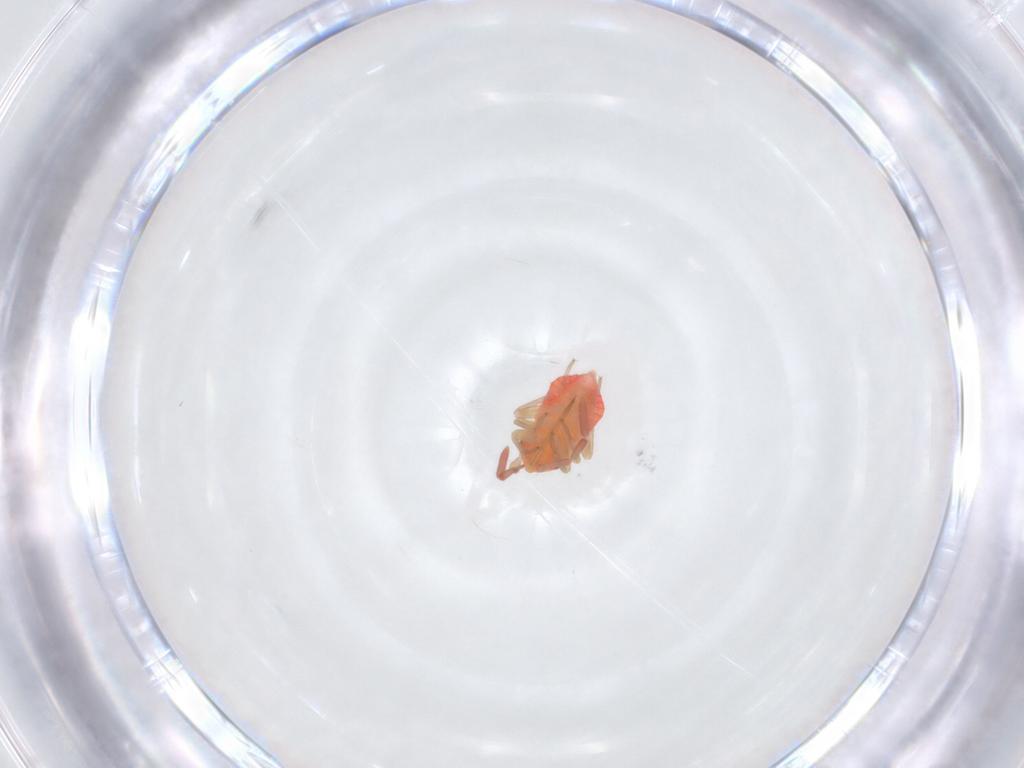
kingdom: Animalia
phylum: Arthropoda
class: Insecta
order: Hemiptera
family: Miridae
